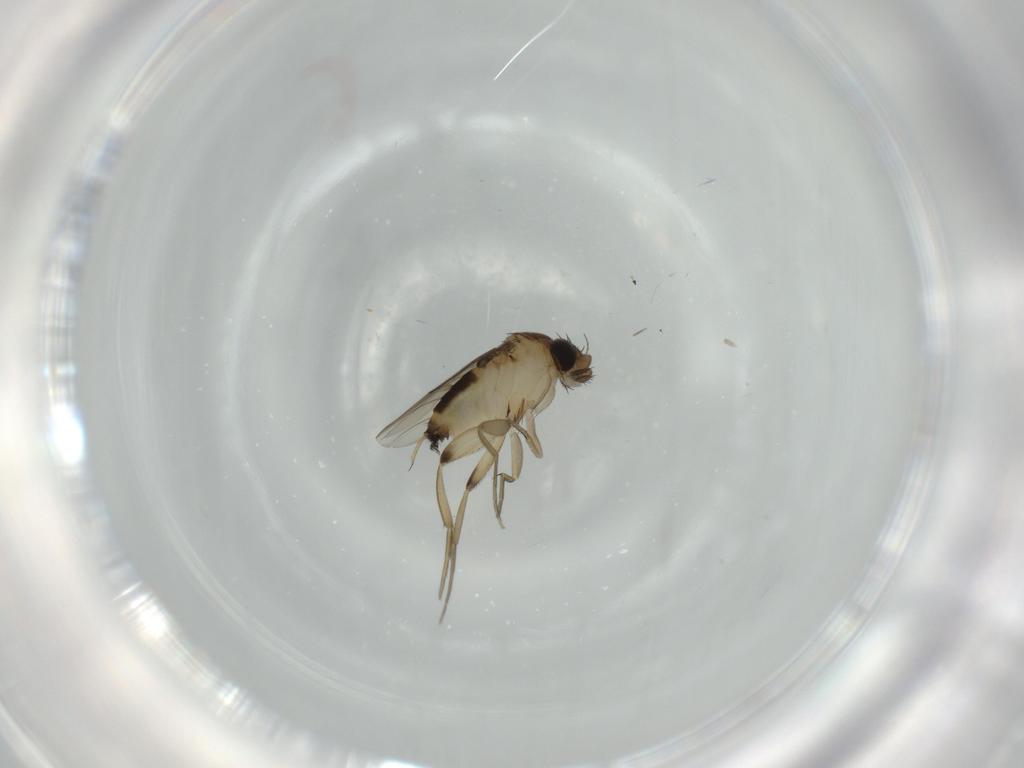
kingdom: Animalia
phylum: Arthropoda
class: Insecta
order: Diptera
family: Phoridae
